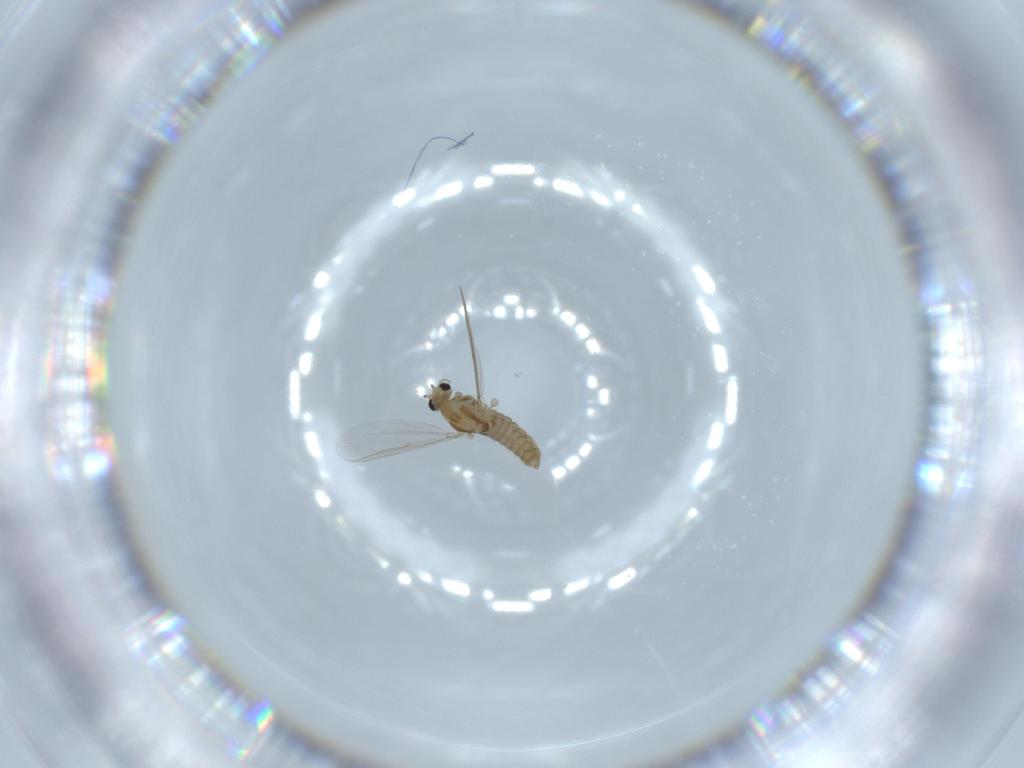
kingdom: Animalia
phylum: Arthropoda
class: Insecta
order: Diptera
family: Chironomidae
